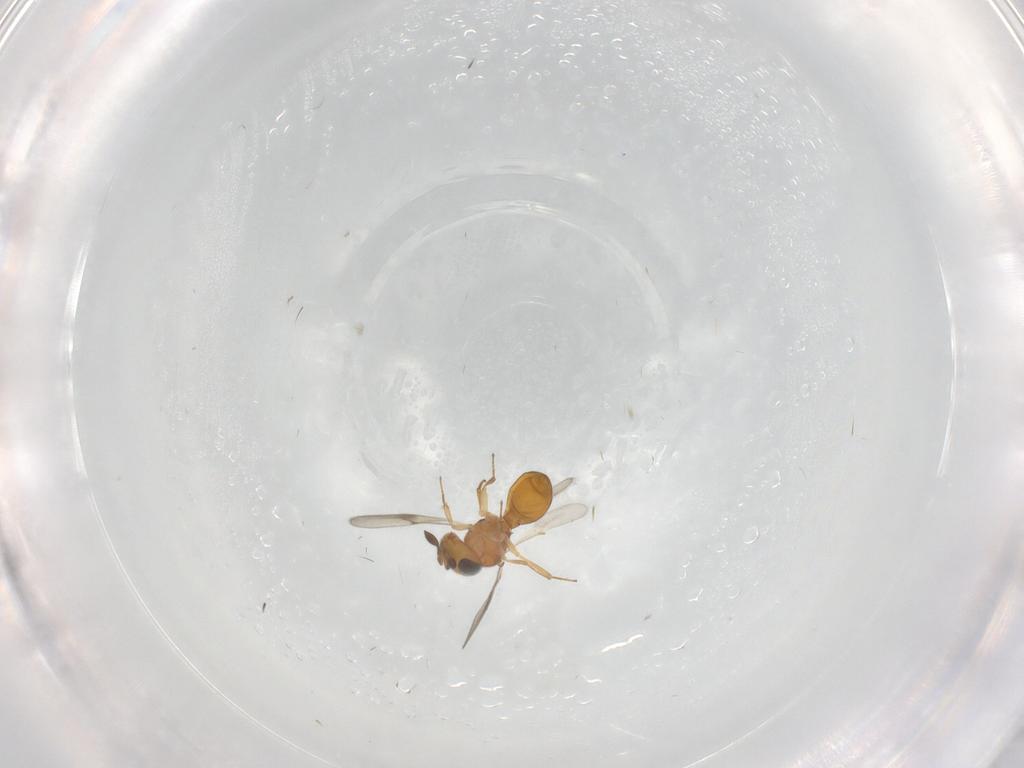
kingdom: Animalia
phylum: Arthropoda
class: Insecta
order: Hymenoptera
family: Scelionidae
